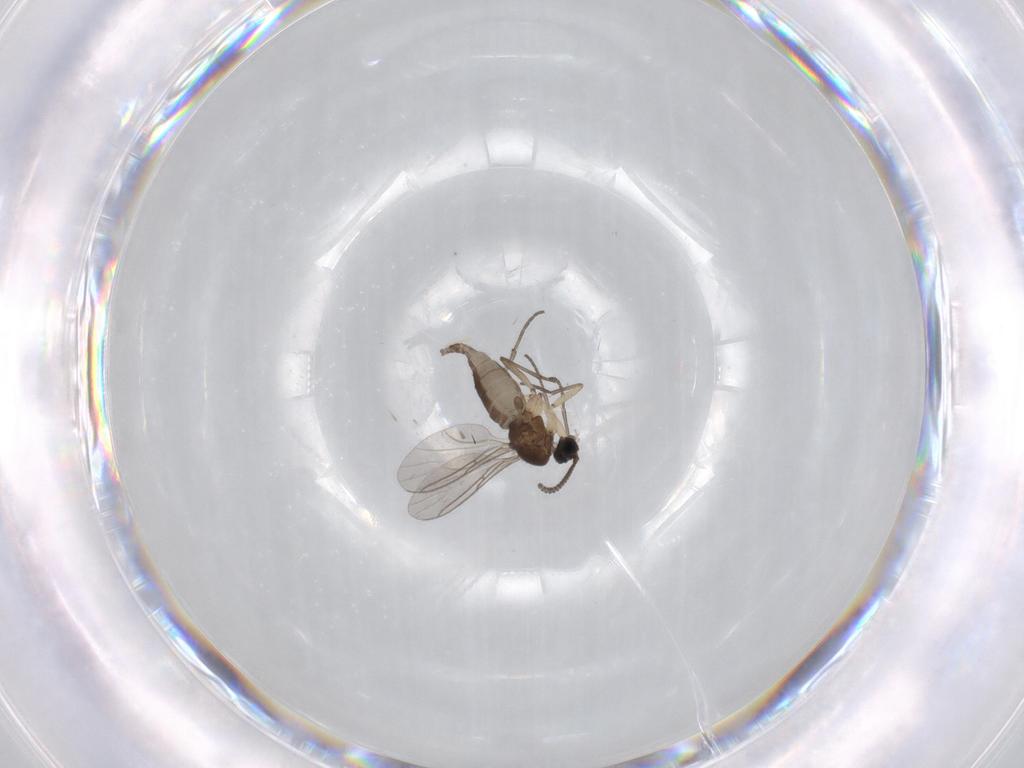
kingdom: Animalia
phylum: Arthropoda
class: Insecta
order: Diptera
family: Sciaridae
